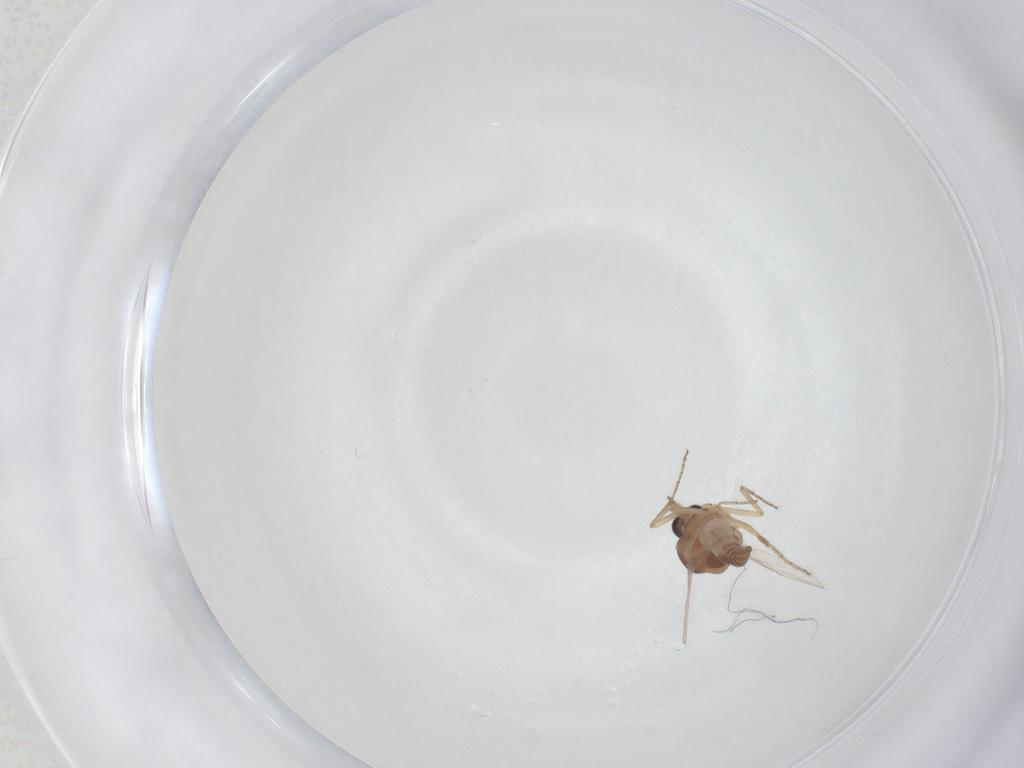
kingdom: Animalia
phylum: Arthropoda
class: Insecta
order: Diptera
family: Ceratopogonidae
